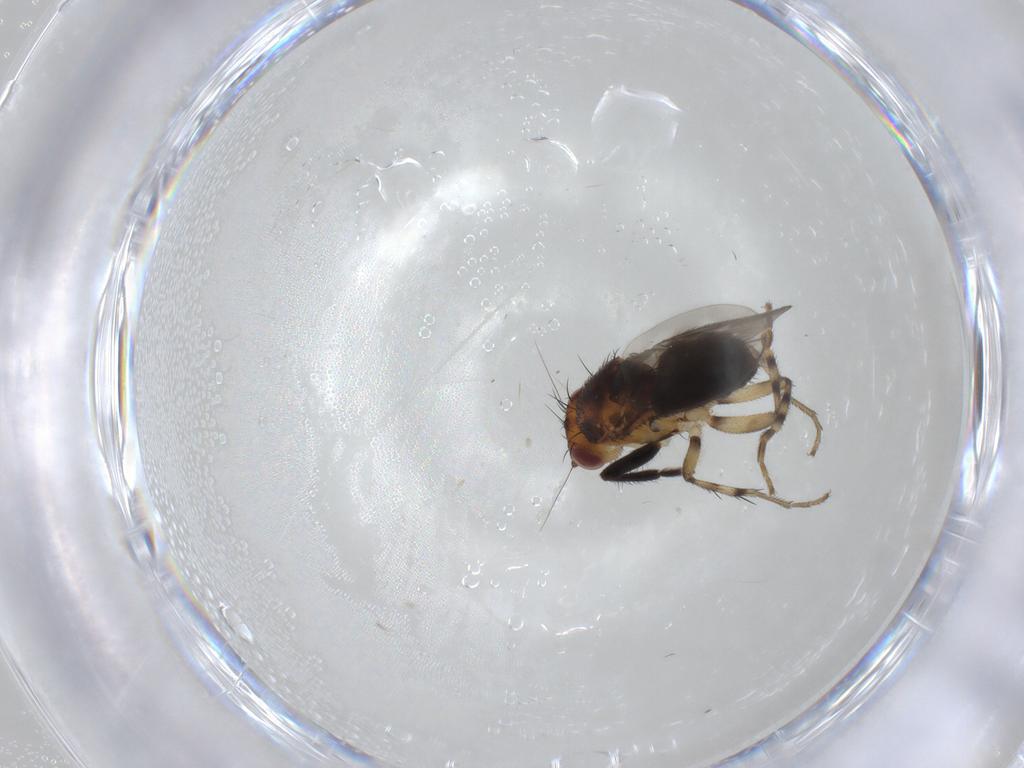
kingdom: Animalia
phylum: Arthropoda
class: Insecta
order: Diptera
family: Sphaeroceridae
